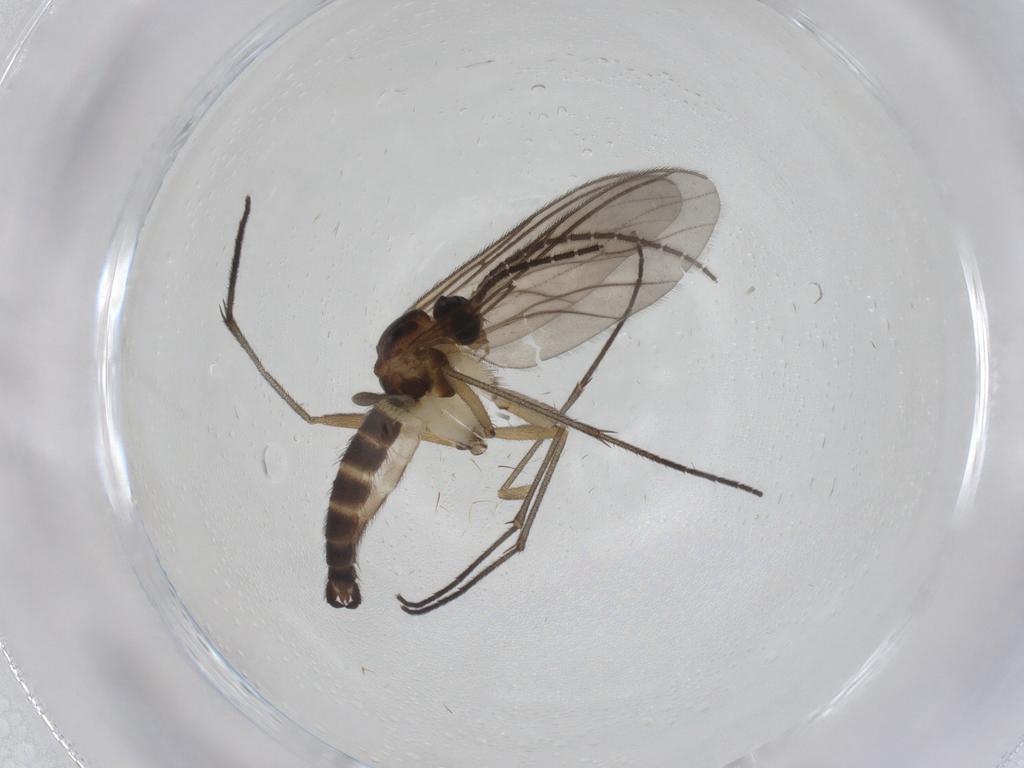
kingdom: Animalia
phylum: Arthropoda
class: Insecta
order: Diptera
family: Sciaridae
